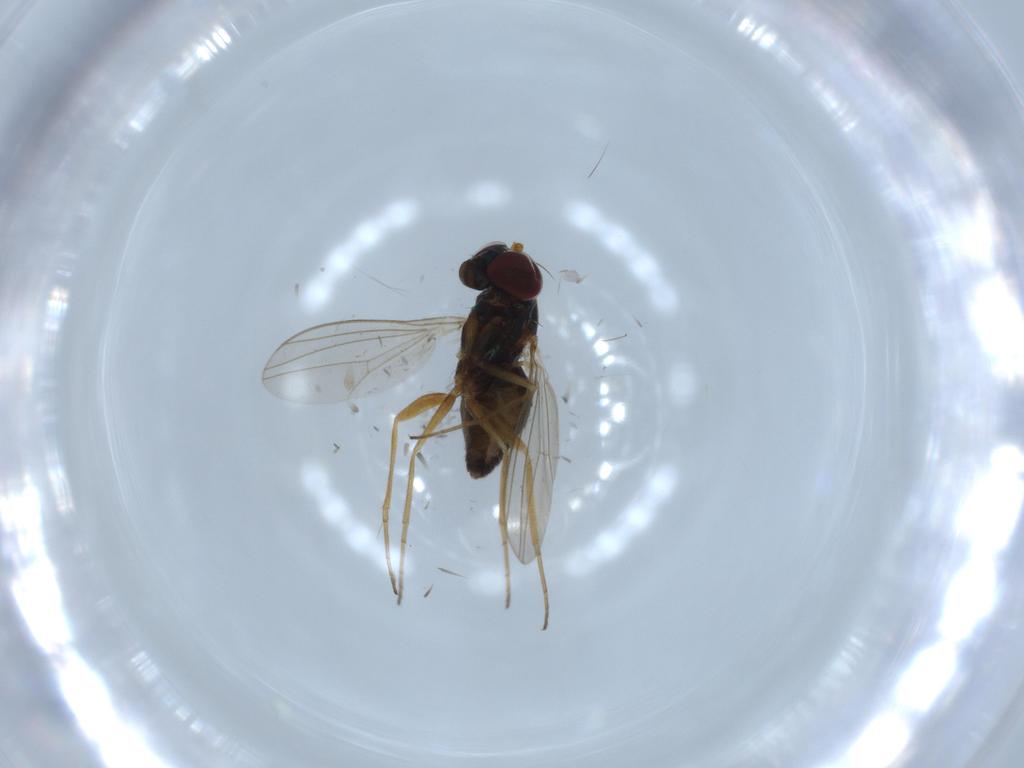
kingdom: Animalia
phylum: Arthropoda
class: Insecta
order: Diptera
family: Dolichopodidae
